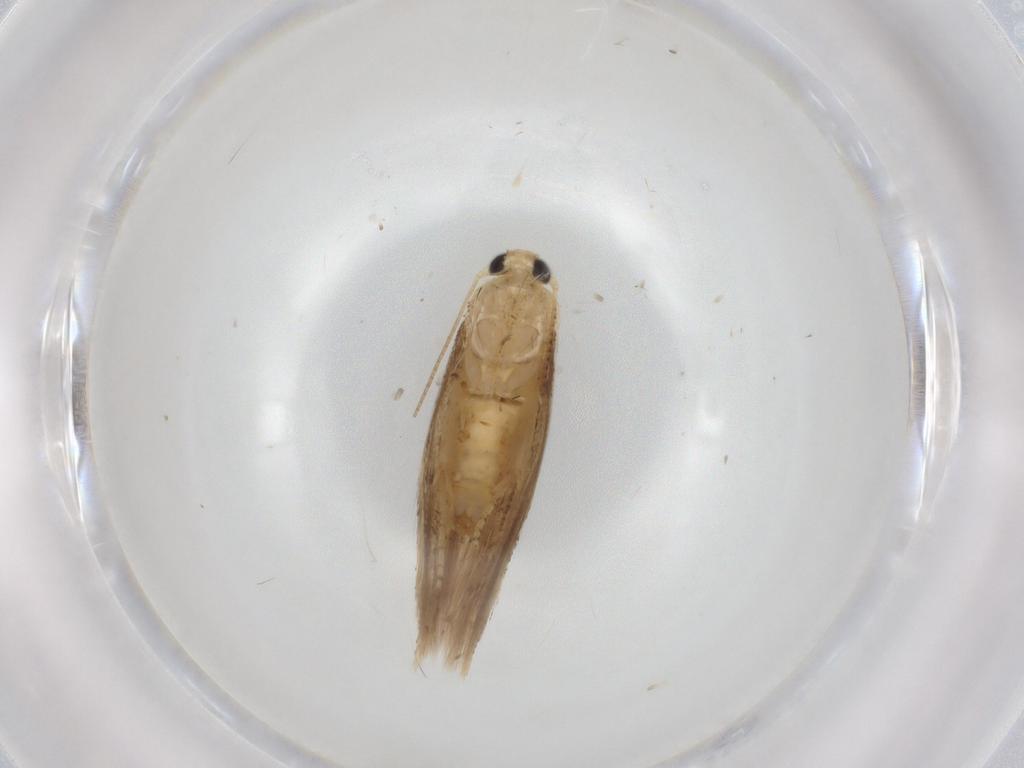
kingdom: Animalia
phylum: Arthropoda
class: Insecta
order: Lepidoptera
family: Bucculatricidae
